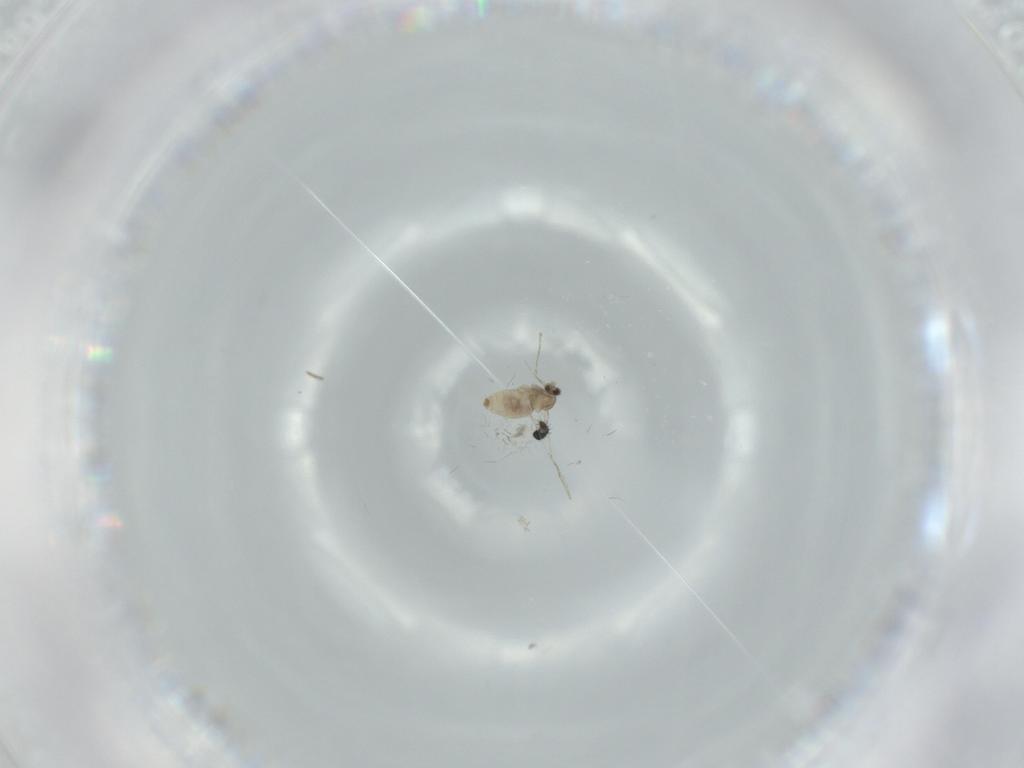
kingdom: Animalia
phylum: Arthropoda
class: Insecta
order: Diptera
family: Cecidomyiidae
